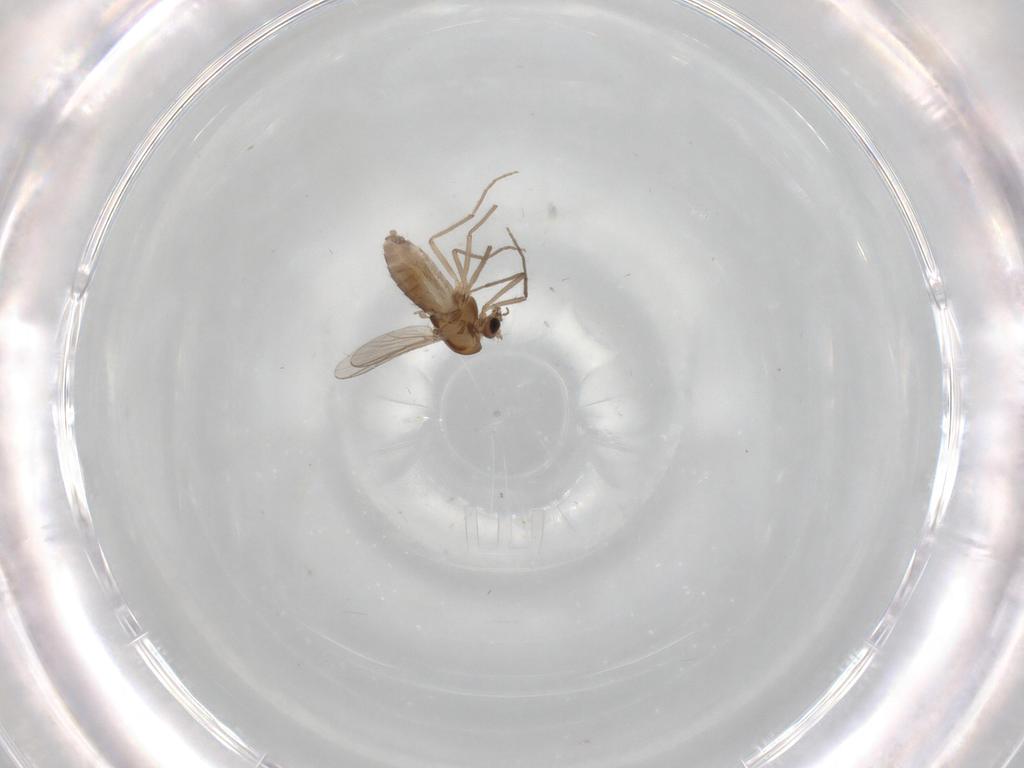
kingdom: Animalia
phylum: Arthropoda
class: Insecta
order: Diptera
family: Chironomidae
